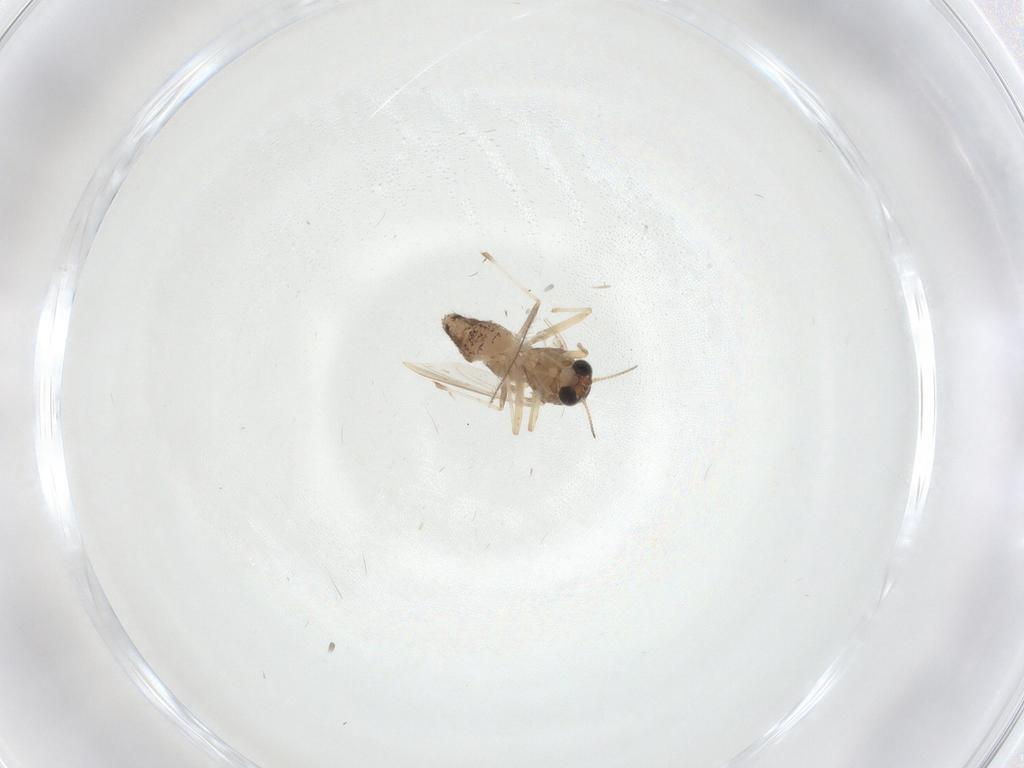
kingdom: Animalia
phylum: Arthropoda
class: Insecta
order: Diptera
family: Chironomidae
